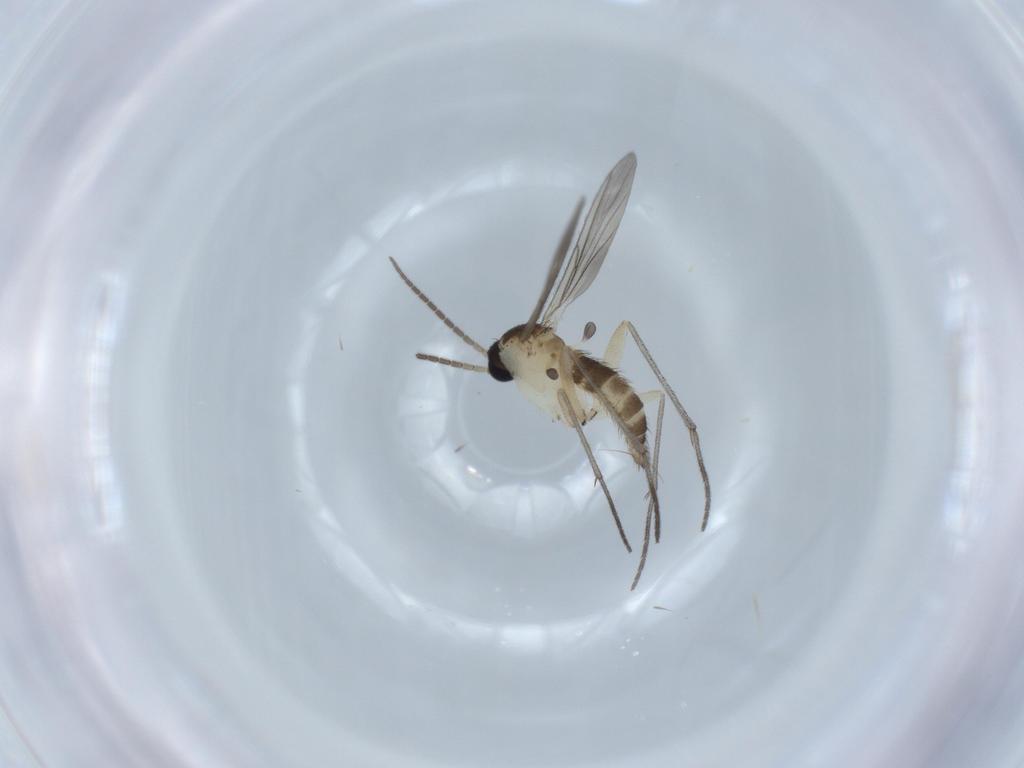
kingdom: Animalia
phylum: Arthropoda
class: Insecta
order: Diptera
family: Sciaridae
